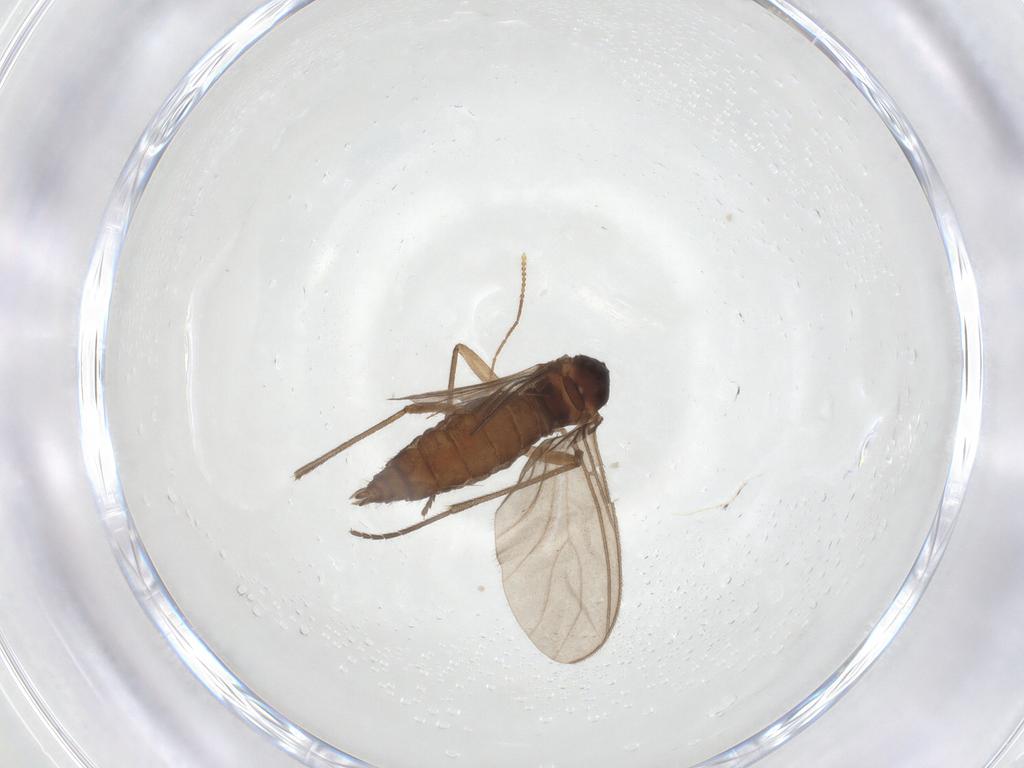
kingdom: Animalia
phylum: Arthropoda
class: Insecta
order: Diptera
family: Sciaridae
